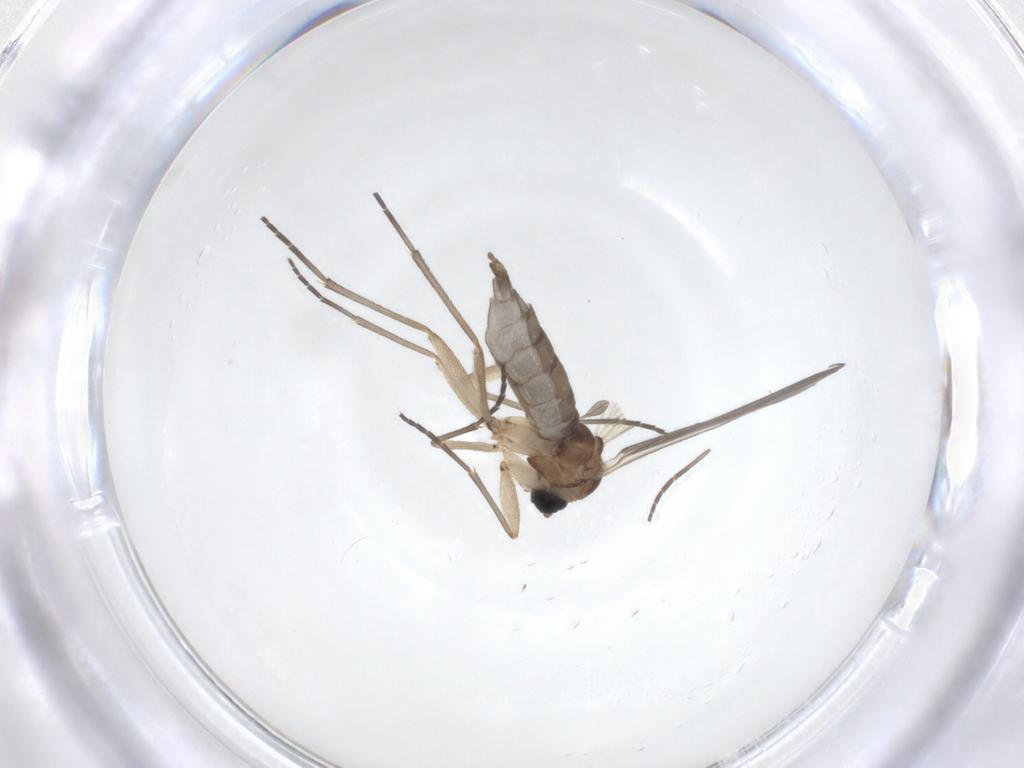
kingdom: Animalia
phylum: Arthropoda
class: Insecta
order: Diptera
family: Sciaridae
